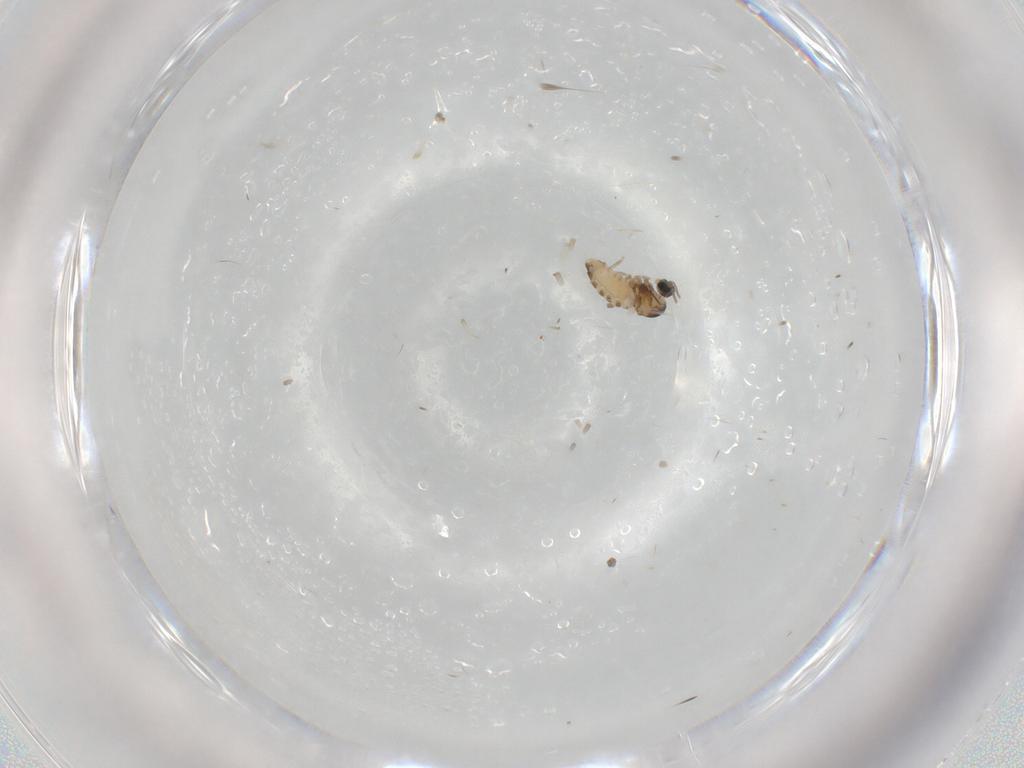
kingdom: Animalia
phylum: Arthropoda
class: Insecta
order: Diptera
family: Cecidomyiidae
